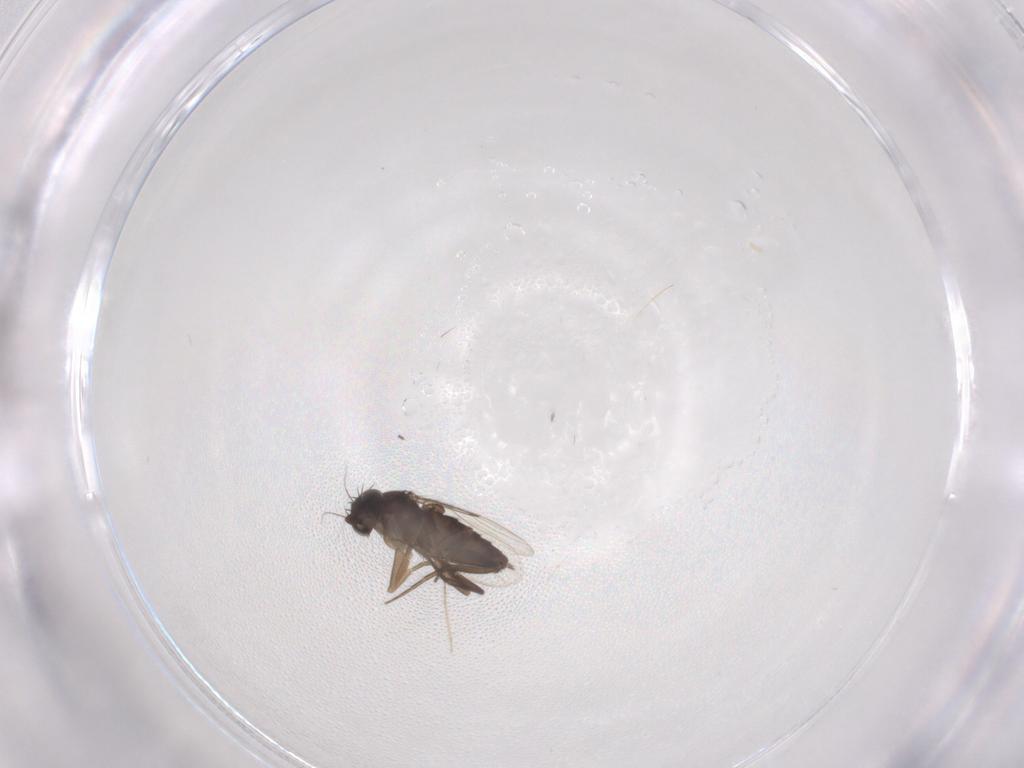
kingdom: Animalia
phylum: Arthropoda
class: Insecta
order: Diptera
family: Phoridae
